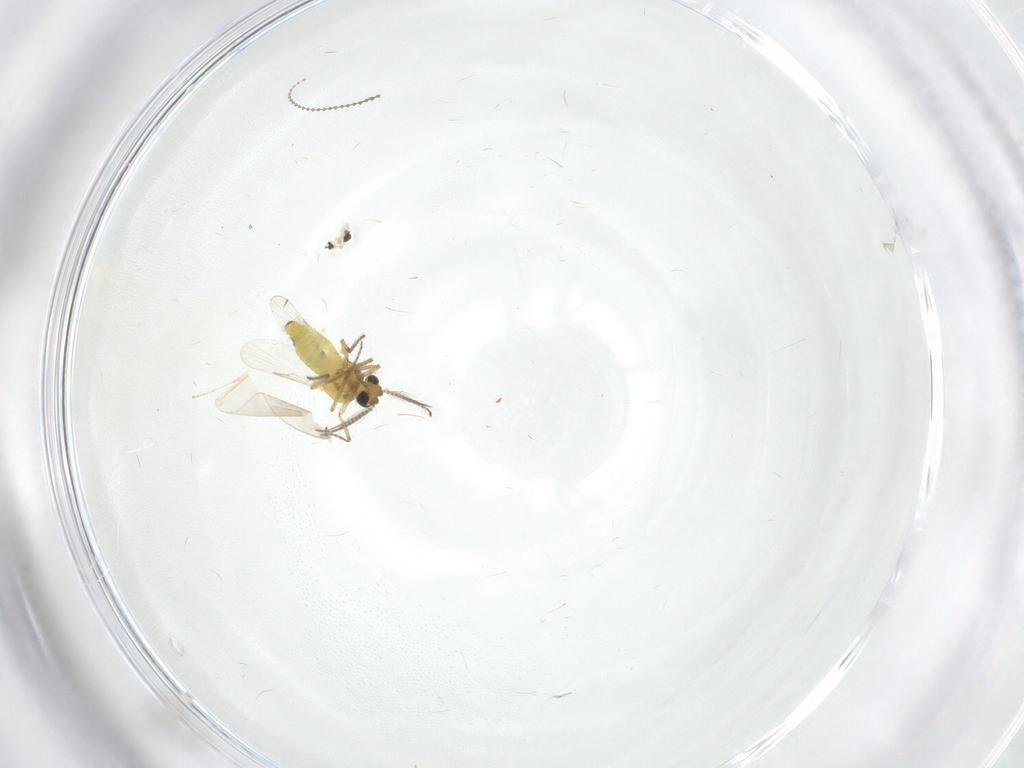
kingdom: Animalia
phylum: Arthropoda
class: Insecta
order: Diptera
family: Cecidomyiidae
